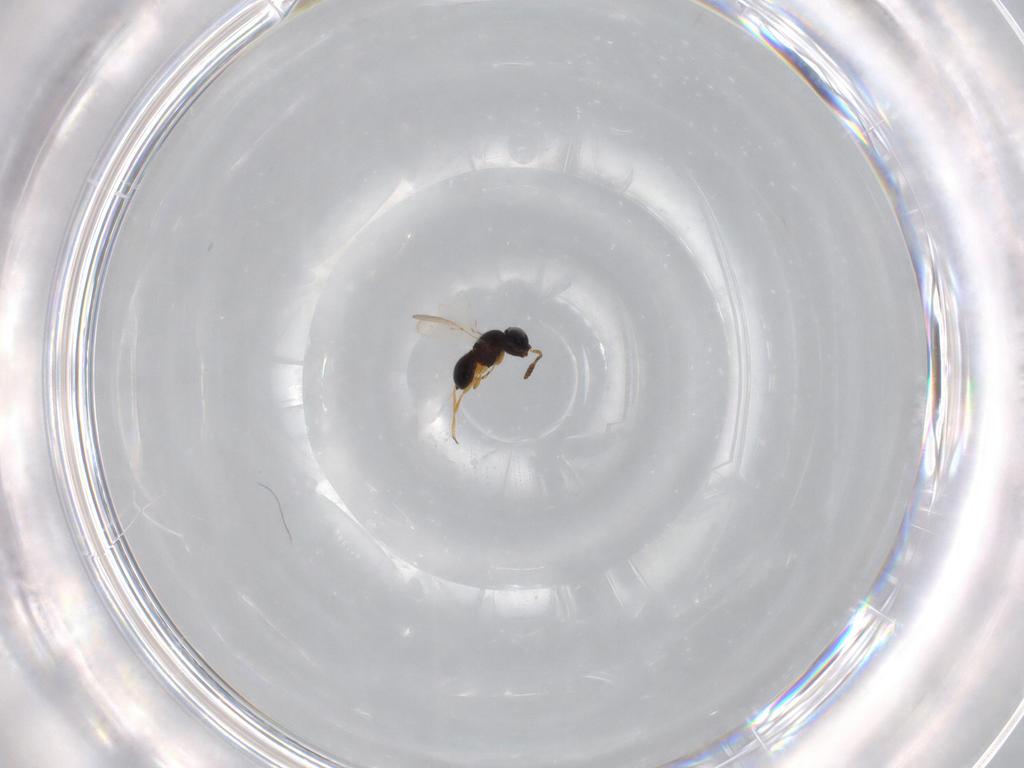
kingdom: Animalia
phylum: Arthropoda
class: Insecta
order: Hymenoptera
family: Scelionidae
